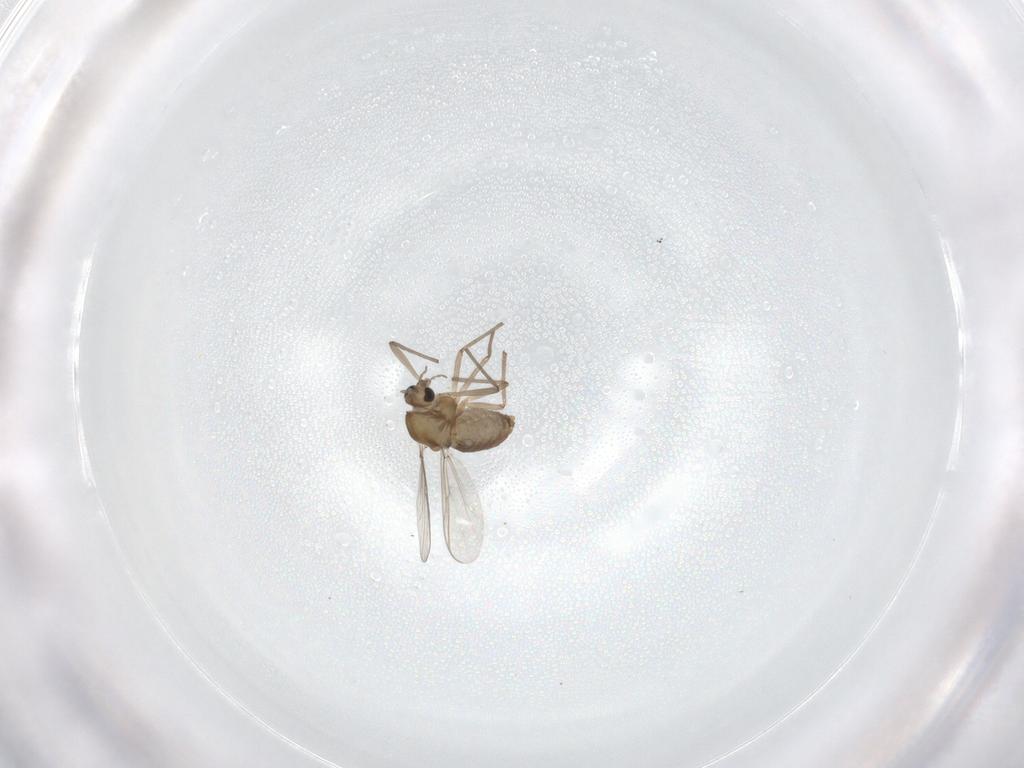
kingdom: Animalia
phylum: Arthropoda
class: Insecta
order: Diptera
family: Chironomidae
